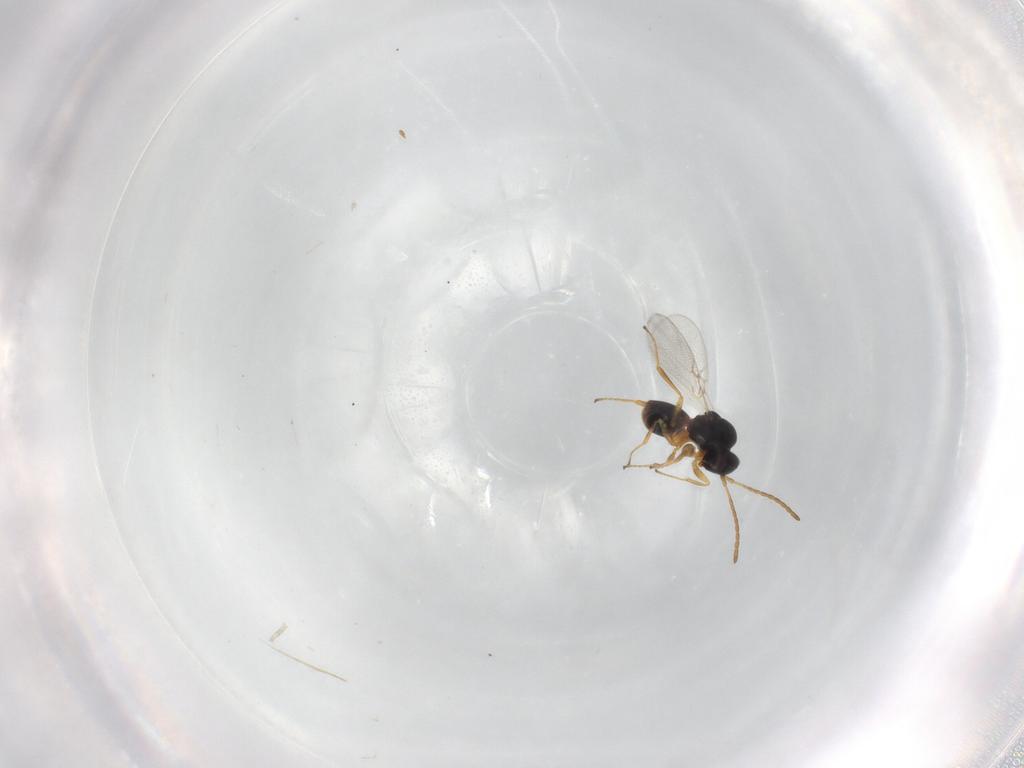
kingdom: Animalia
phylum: Arthropoda
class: Insecta
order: Hymenoptera
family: Figitidae
